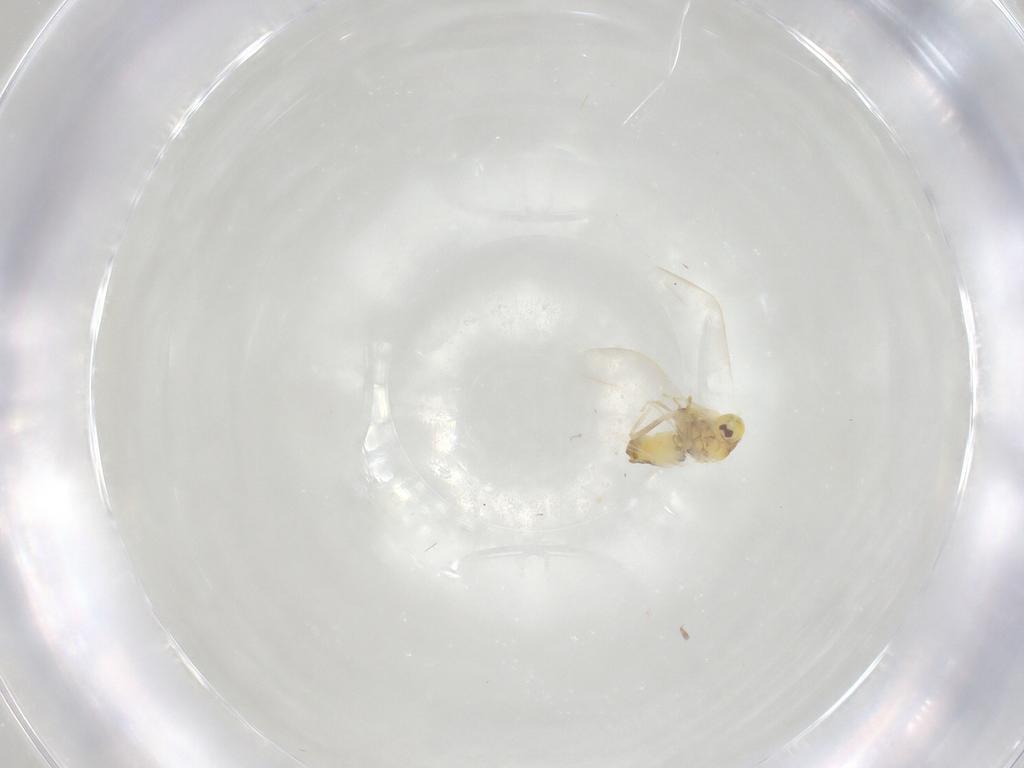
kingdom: Animalia
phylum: Arthropoda
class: Insecta
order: Hemiptera
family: Aleyrodidae
